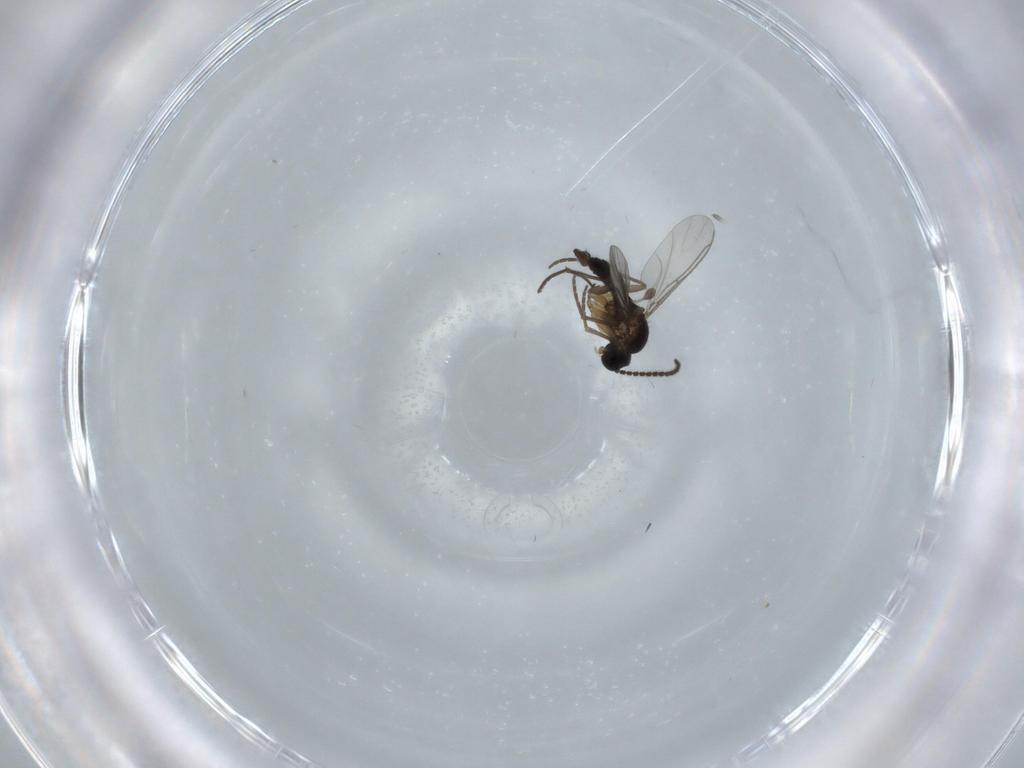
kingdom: Animalia
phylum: Arthropoda
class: Insecta
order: Diptera
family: Sciaridae
